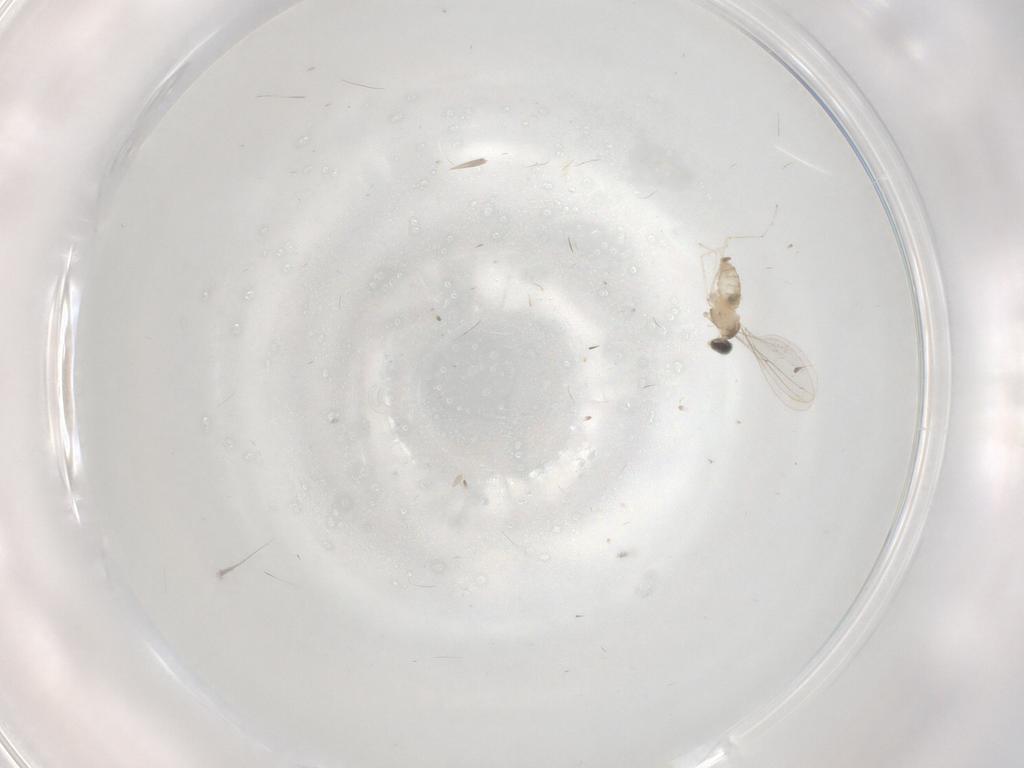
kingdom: Animalia
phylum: Arthropoda
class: Insecta
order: Diptera
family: Cecidomyiidae
